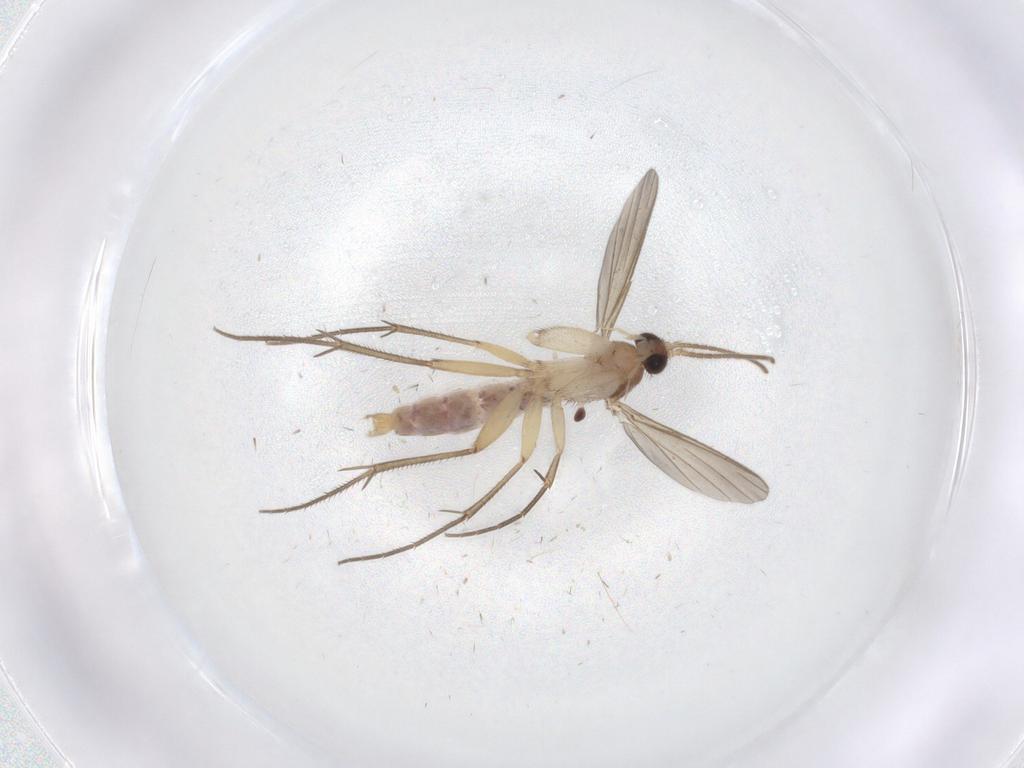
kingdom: Animalia
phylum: Arthropoda
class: Insecta
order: Diptera
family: Mycetophilidae
